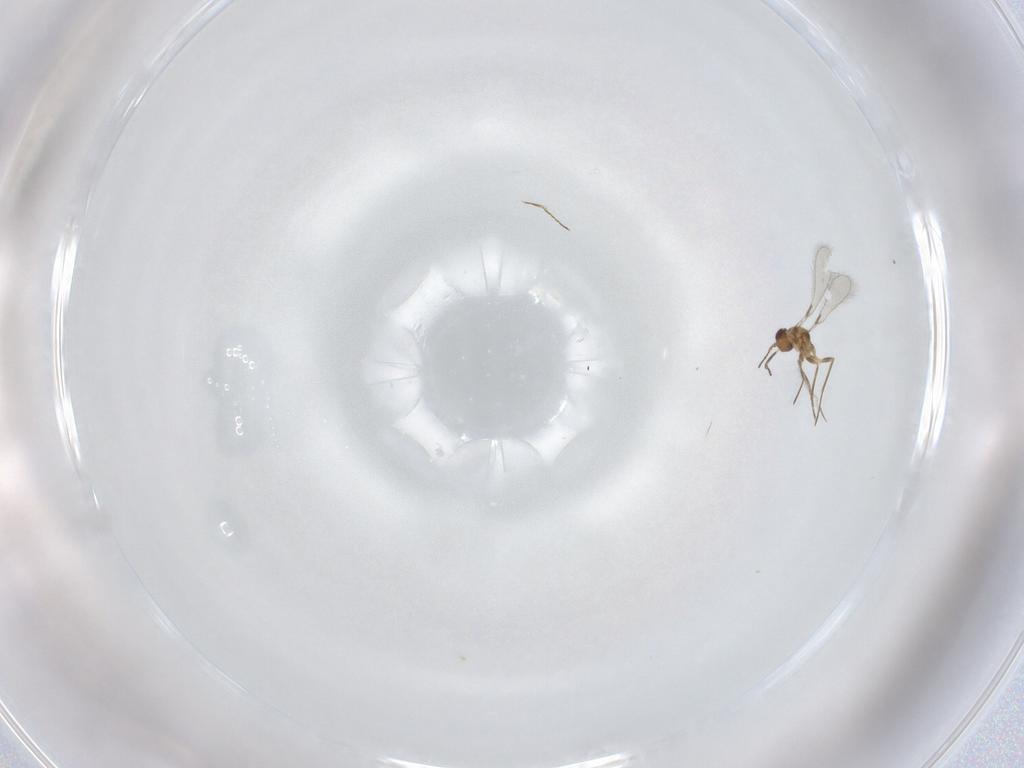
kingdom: Animalia
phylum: Arthropoda
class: Insecta
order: Hymenoptera
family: Mymaridae
